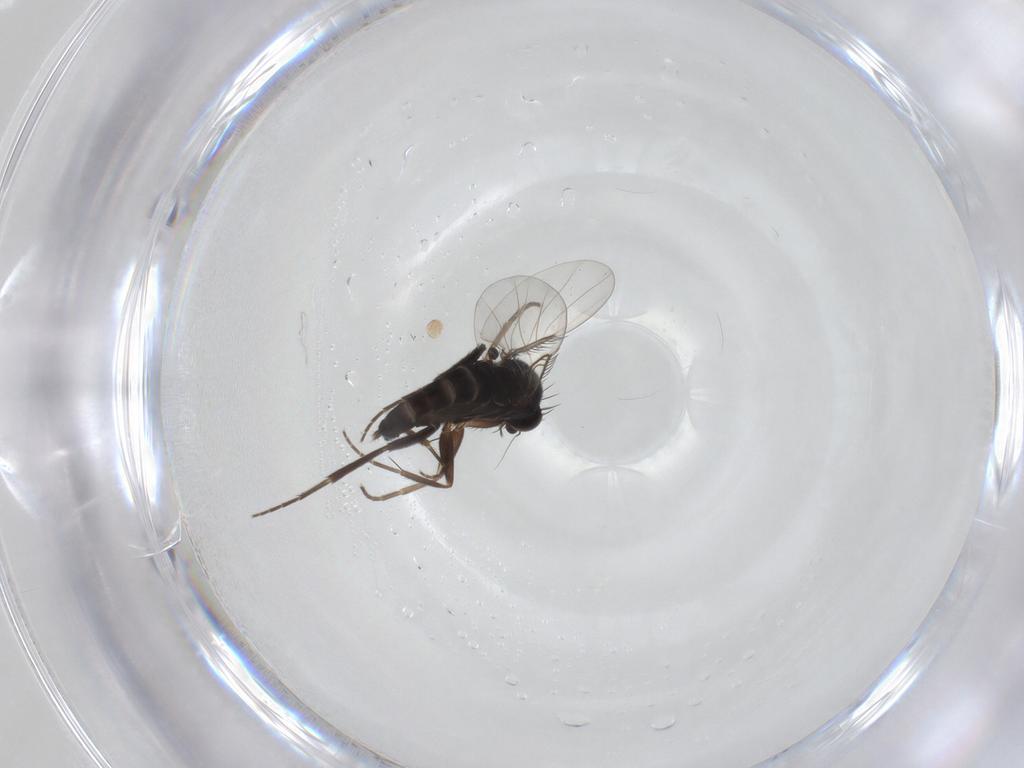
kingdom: Animalia
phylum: Arthropoda
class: Insecta
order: Diptera
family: Phoridae
